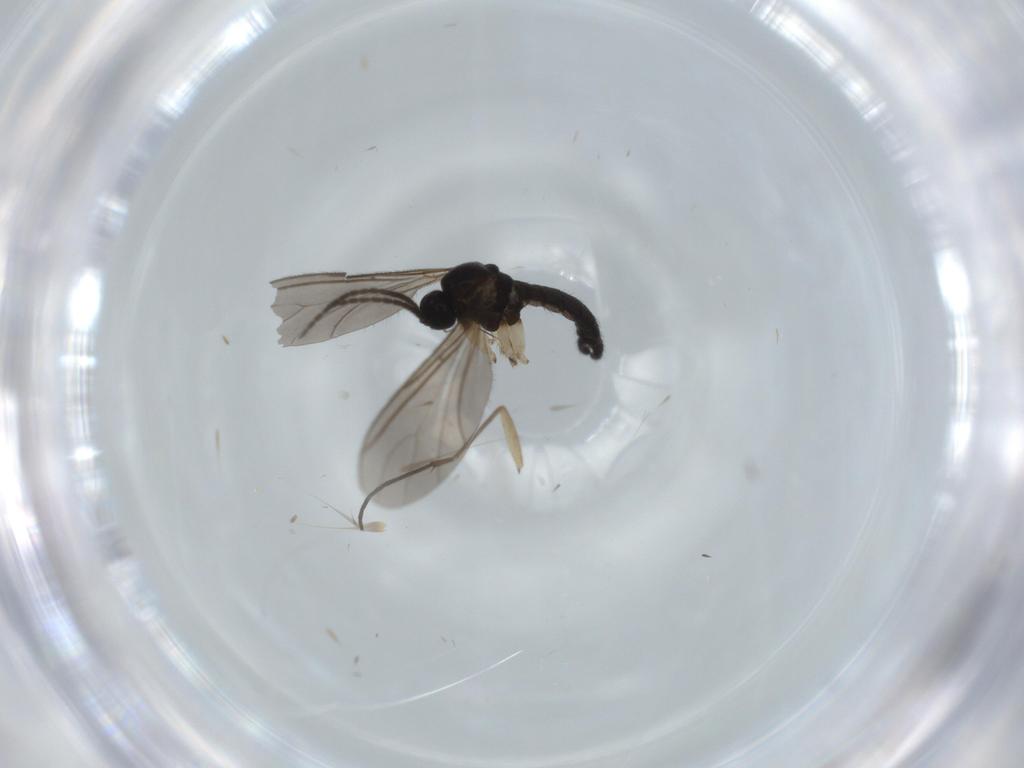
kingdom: Animalia
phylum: Arthropoda
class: Insecta
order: Diptera
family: Sciaridae
